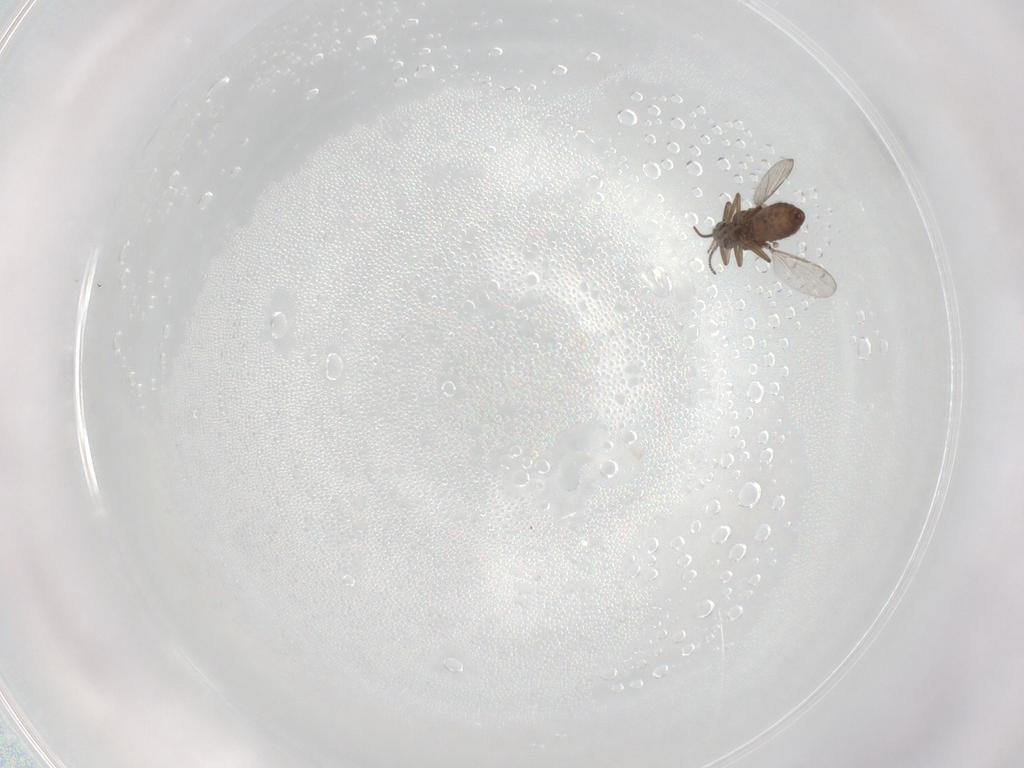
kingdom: Animalia
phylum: Arthropoda
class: Insecta
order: Diptera
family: Ceratopogonidae
